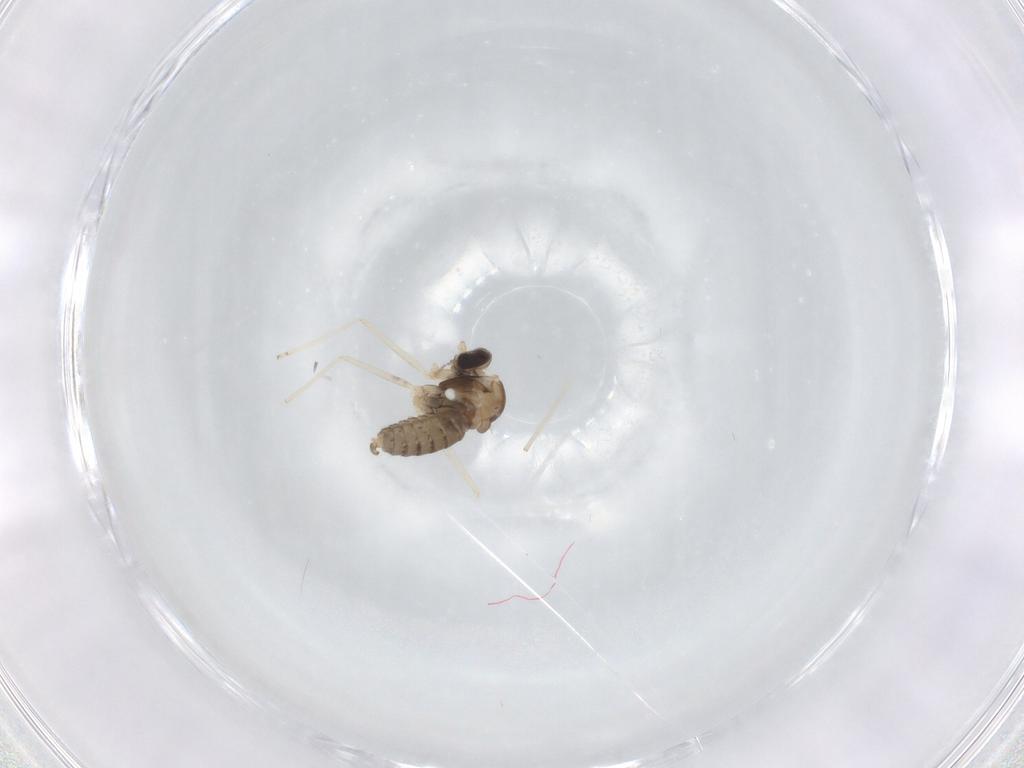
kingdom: Animalia
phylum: Arthropoda
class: Insecta
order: Diptera
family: Cecidomyiidae
